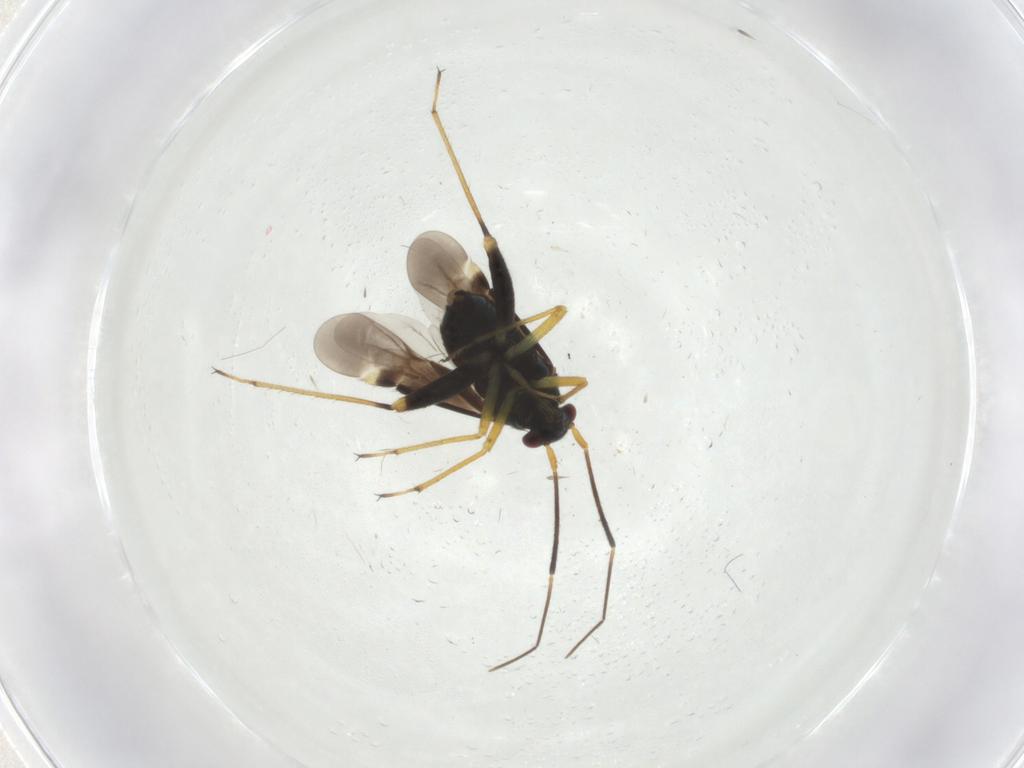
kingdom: Animalia
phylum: Arthropoda
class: Insecta
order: Hemiptera
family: Miridae
